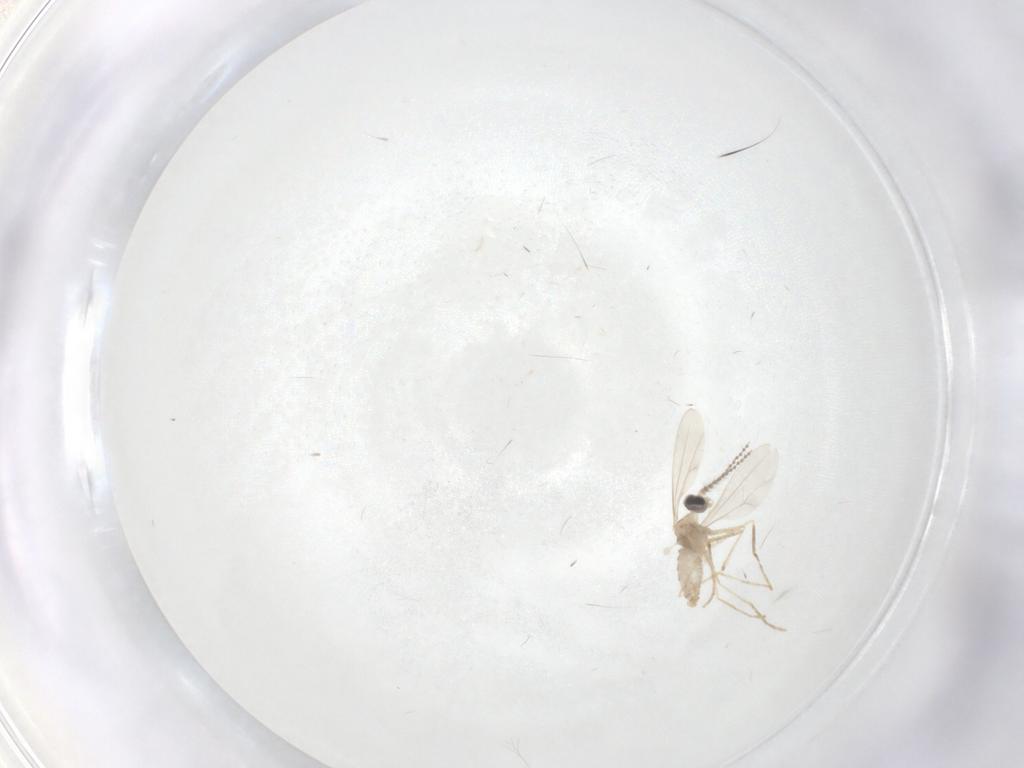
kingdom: Animalia
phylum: Arthropoda
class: Insecta
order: Diptera
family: Cecidomyiidae
